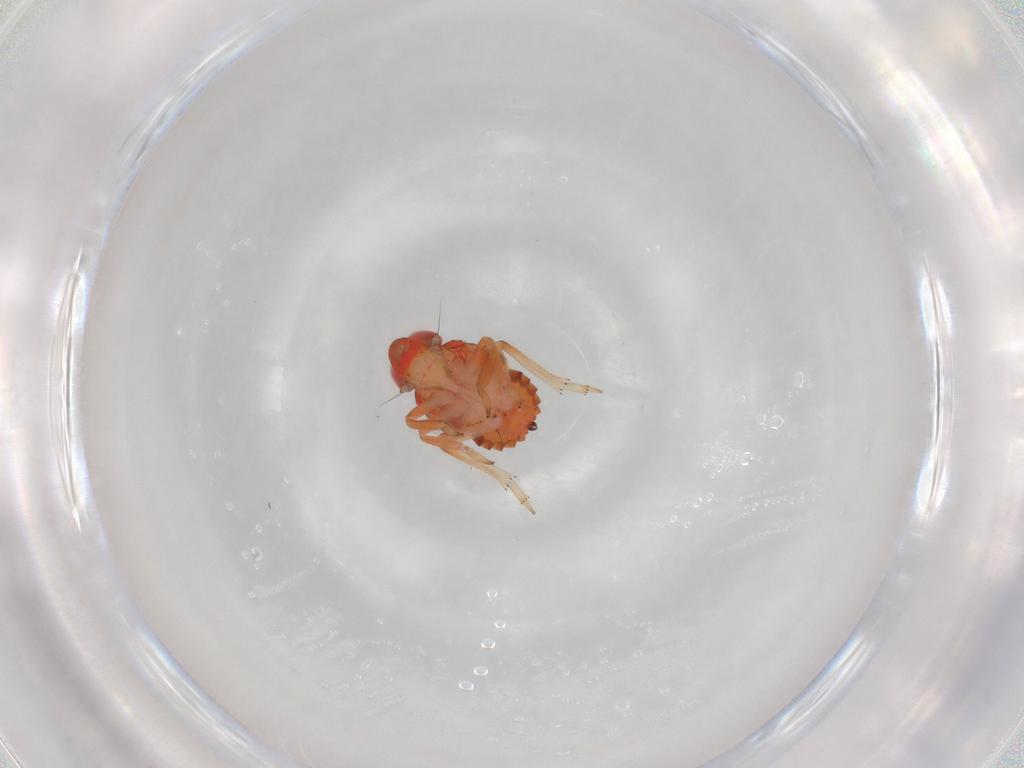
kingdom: Animalia
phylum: Arthropoda
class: Insecta
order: Hemiptera
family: Issidae
